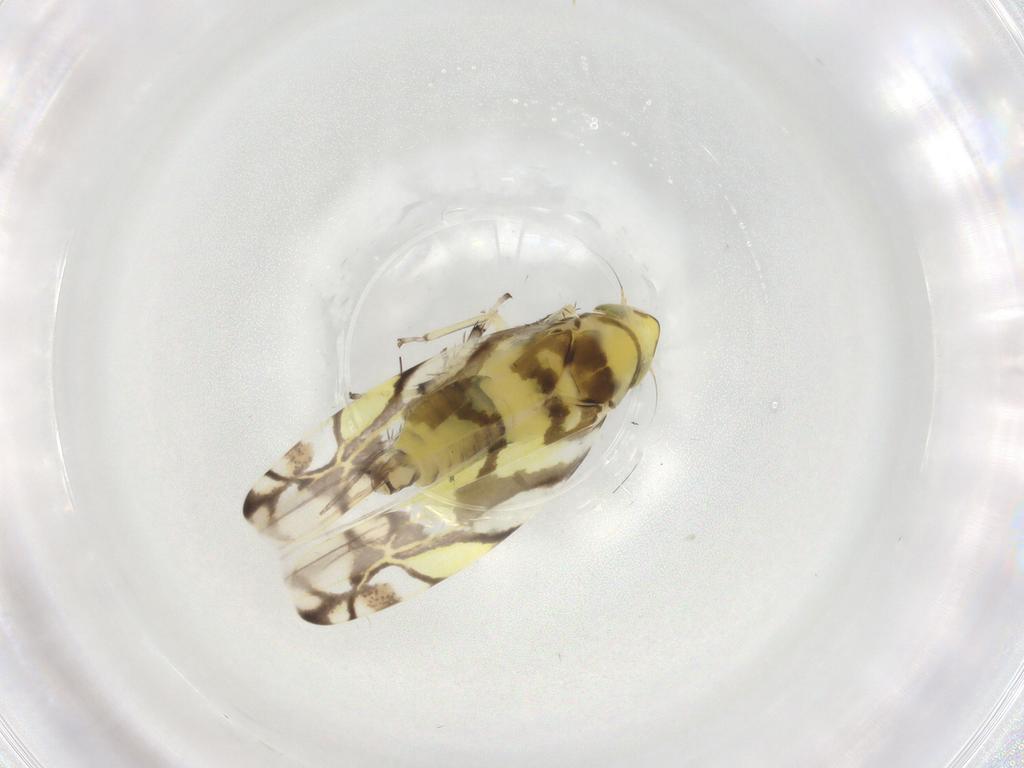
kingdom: Animalia
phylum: Arthropoda
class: Insecta
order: Hemiptera
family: Cicadellidae
